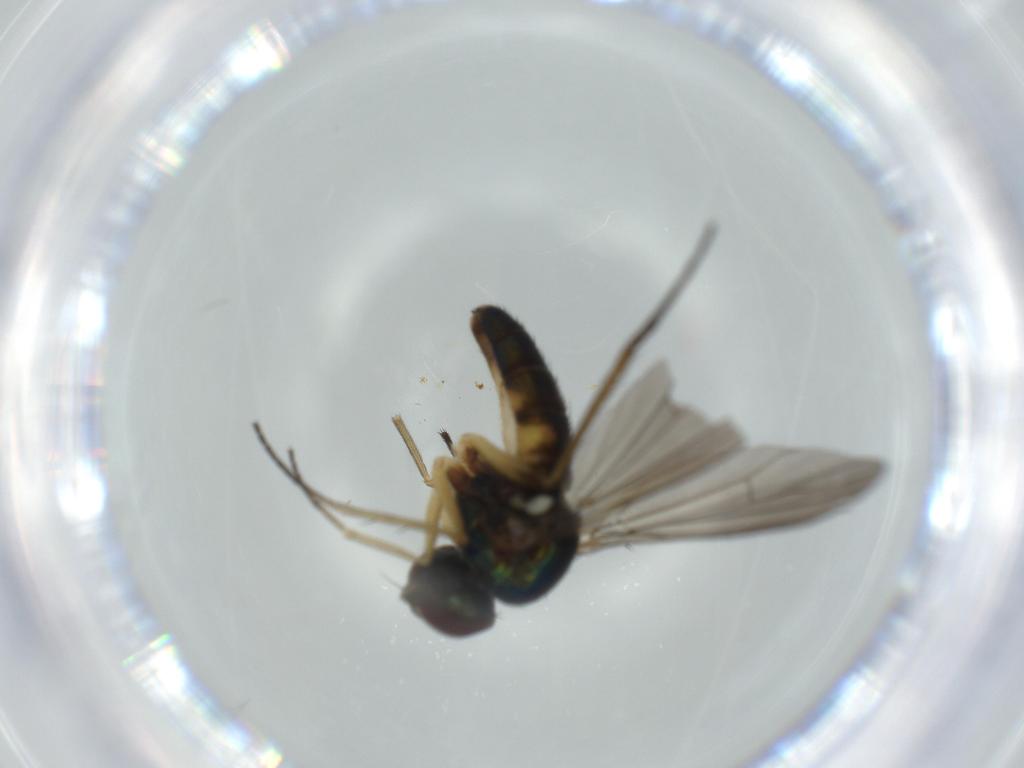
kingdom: Animalia
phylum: Arthropoda
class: Insecta
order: Diptera
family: Dolichopodidae
